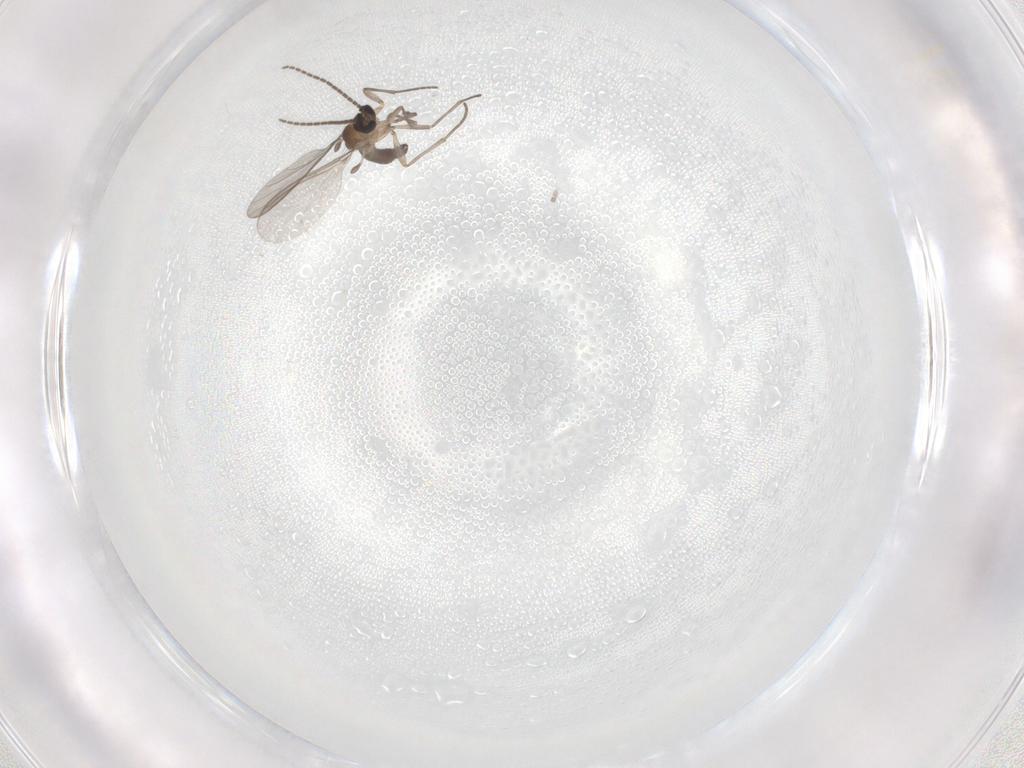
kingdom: Animalia
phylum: Arthropoda
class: Insecta
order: Diptera
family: Sciaridae
